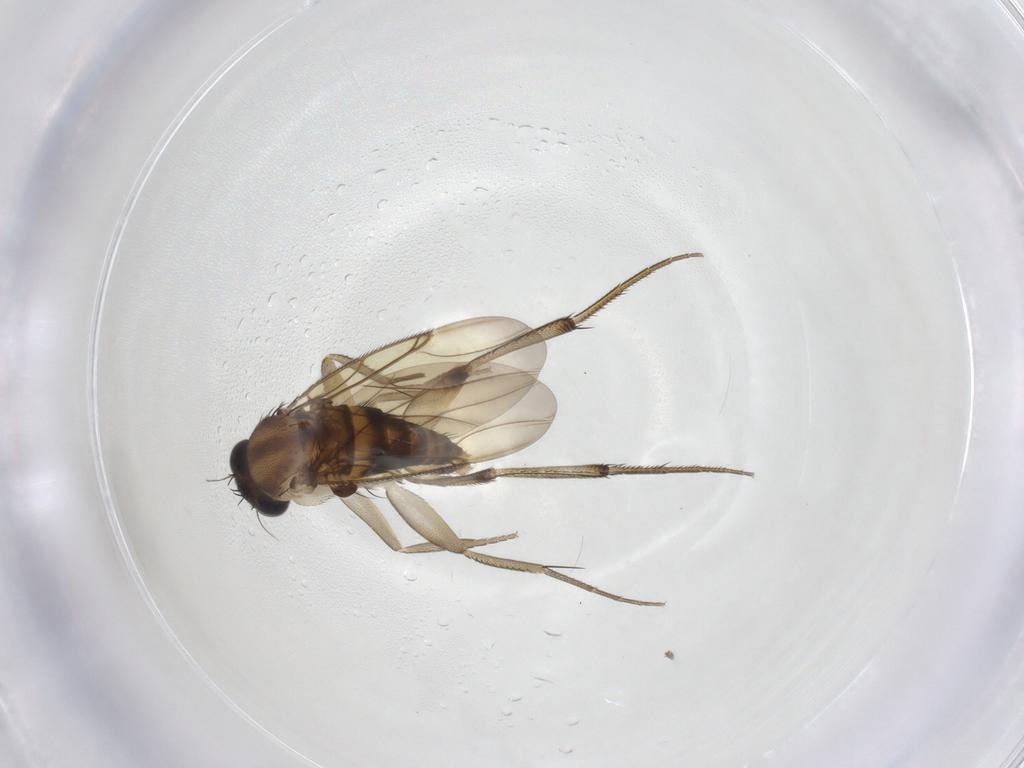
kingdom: Animalia
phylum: Arthropoda
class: Insecta
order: Diptera
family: Phoridae
